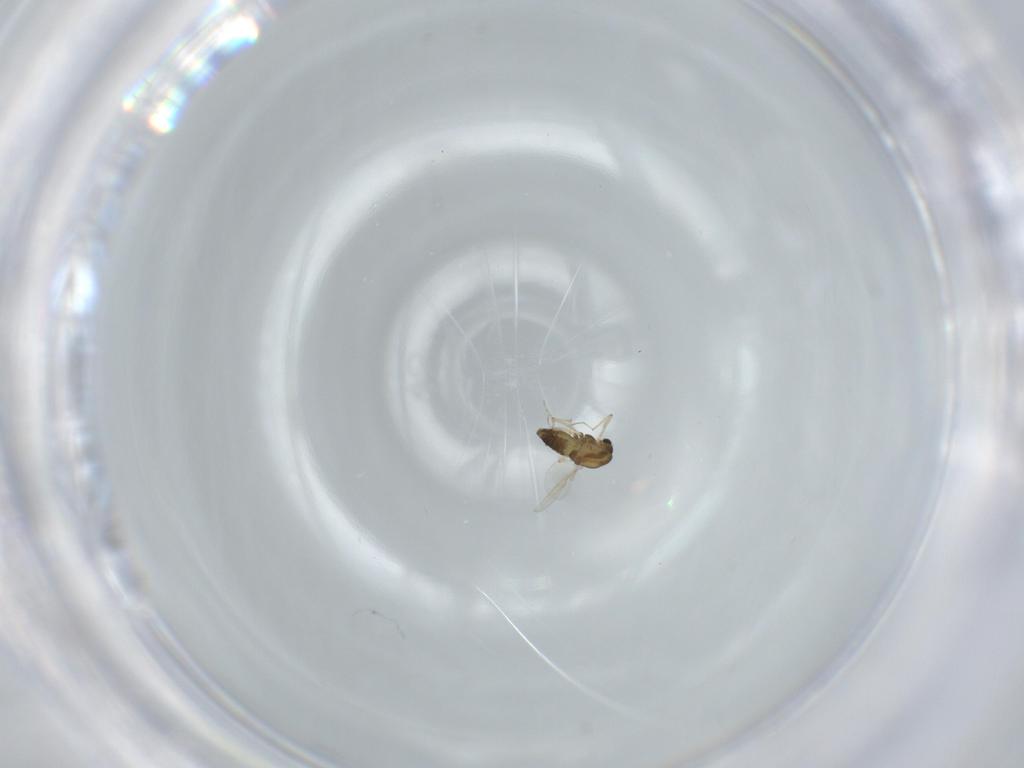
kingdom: Animalia
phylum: Arthropoda
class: Insecta
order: Diptera
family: Chironomidae
